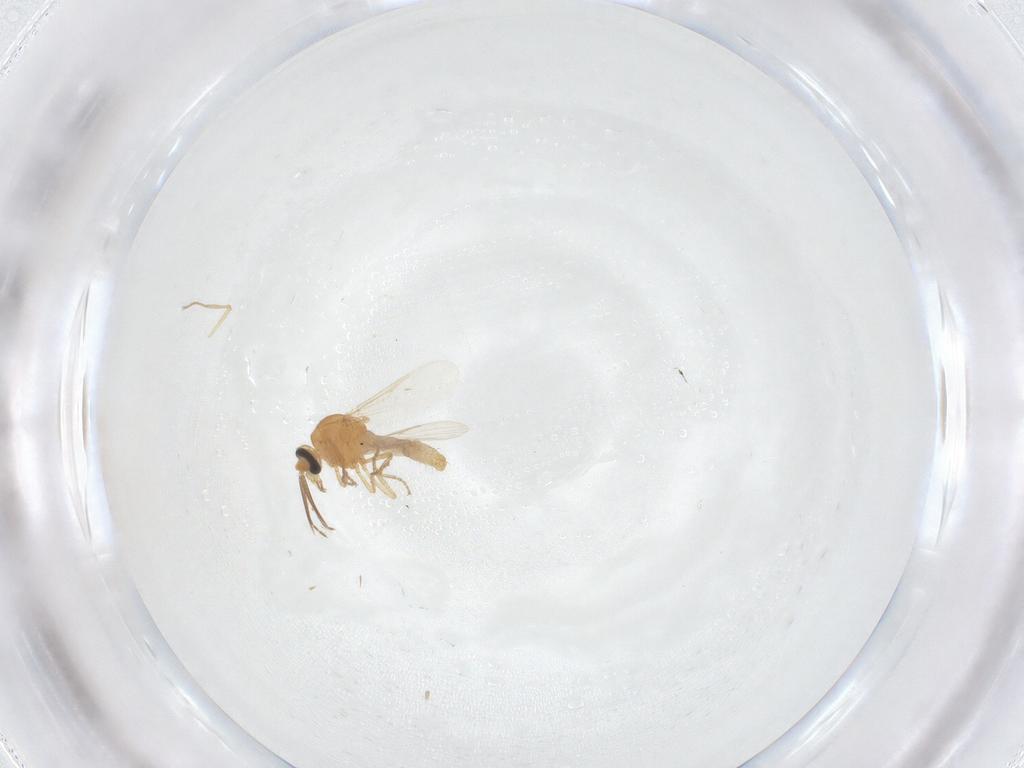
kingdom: Animalia
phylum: Arthropoda
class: Insecta
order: Diptera
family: Ceratopogonidae
